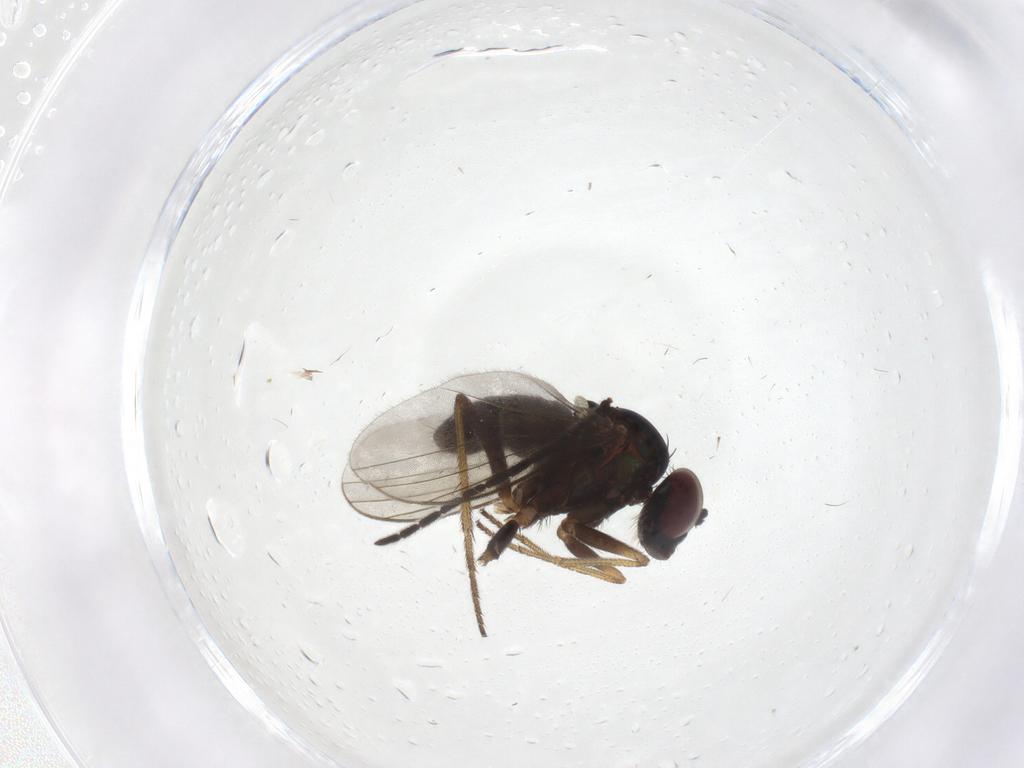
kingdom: Animalia
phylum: Arthropoda
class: Insecta
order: Diptera
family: Dolichopodidae
